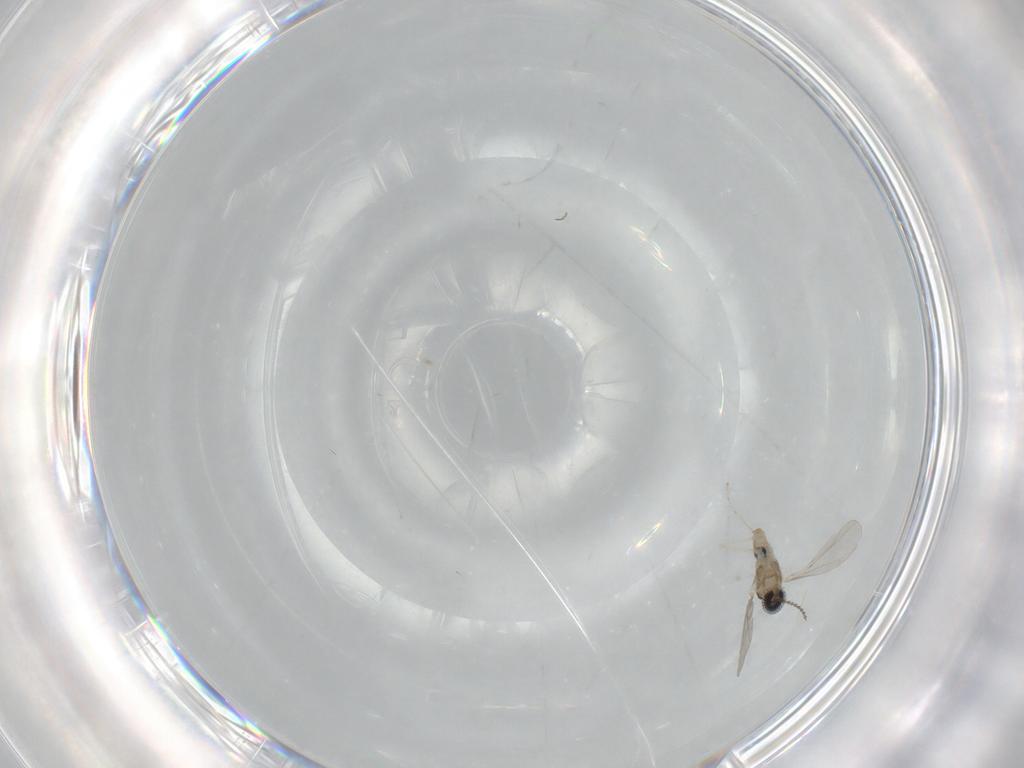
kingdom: Animalia
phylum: Arthropoda
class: Insecta
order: Diptera
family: Cecidomyiidae
